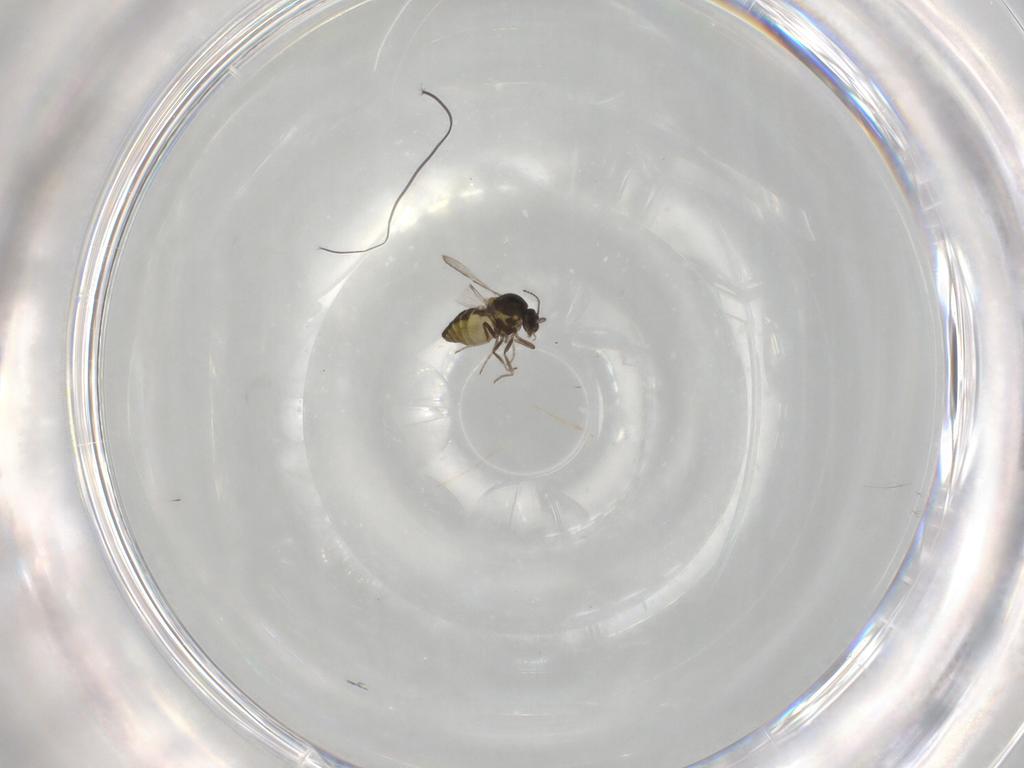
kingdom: Animalia
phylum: Arthropoda
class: Insecta
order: Diptera
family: Ceratopogonidae
